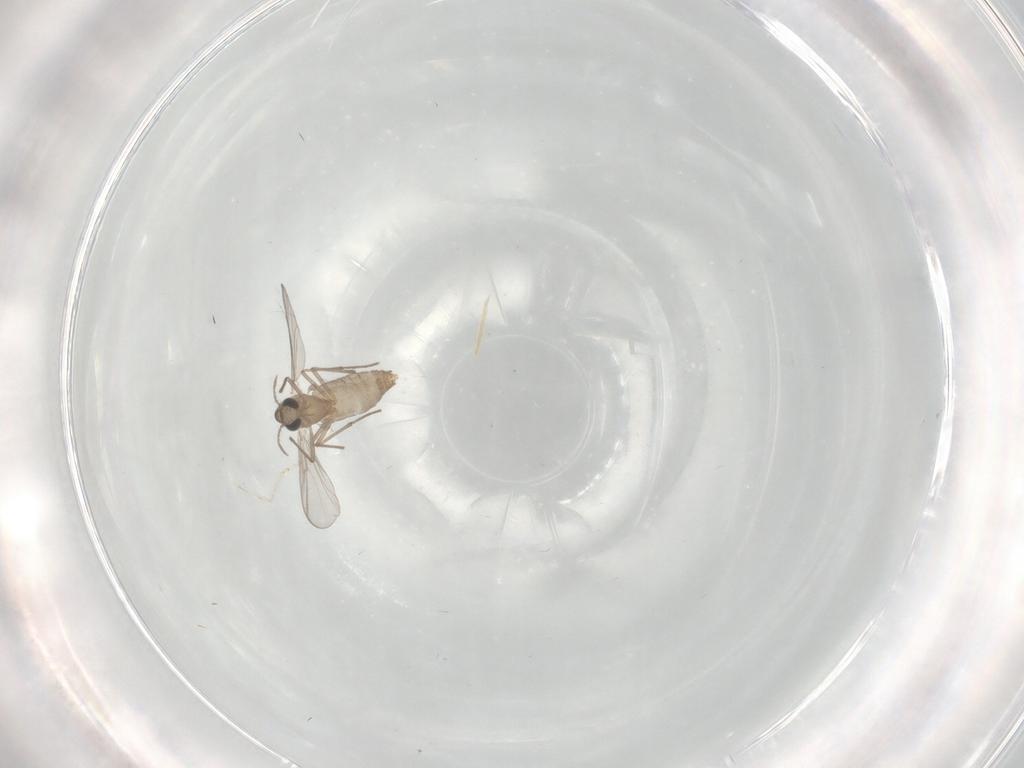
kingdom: Animalia
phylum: Arthropoda
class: Insecta
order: Diptera
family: Chironomidae
